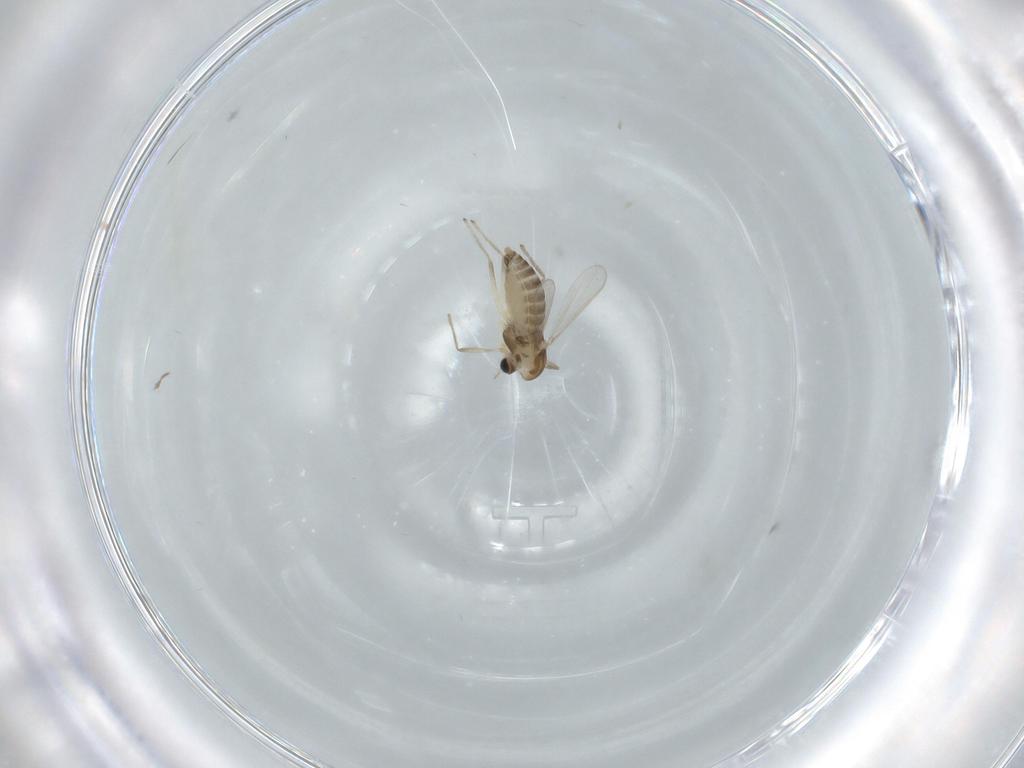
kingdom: Animalia
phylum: Arthropoda
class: Insecta
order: Diptera
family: Chironomidae
